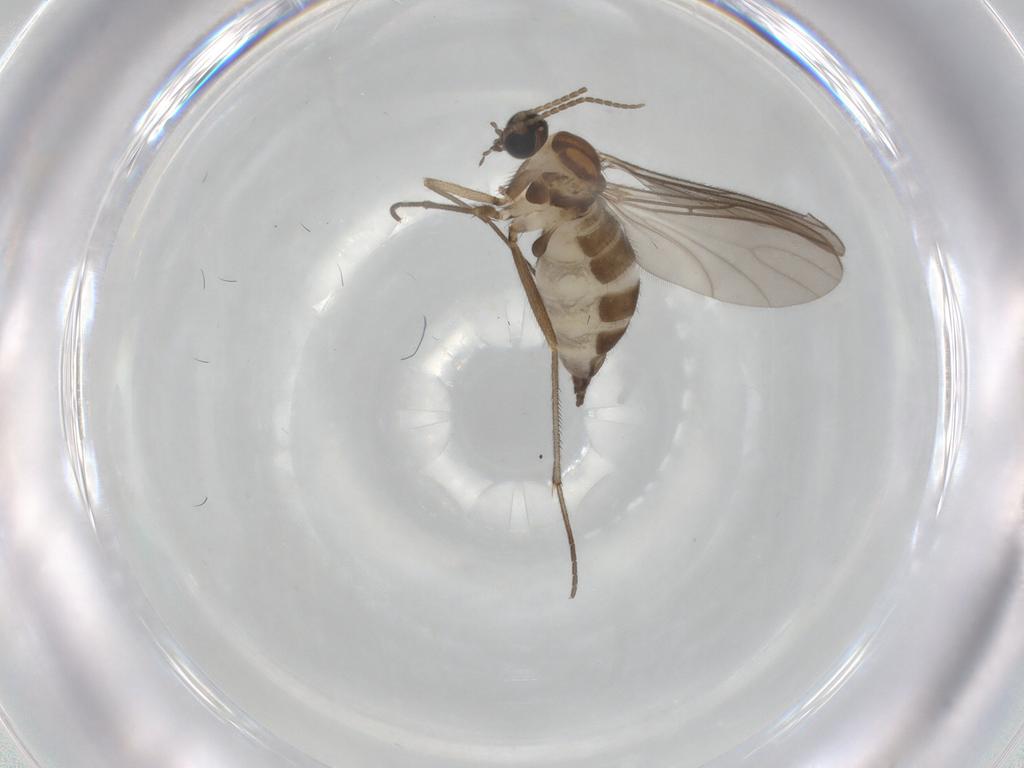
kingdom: Animalia
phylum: Arthropoda
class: Insecta
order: Diptera
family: Sciaridae
